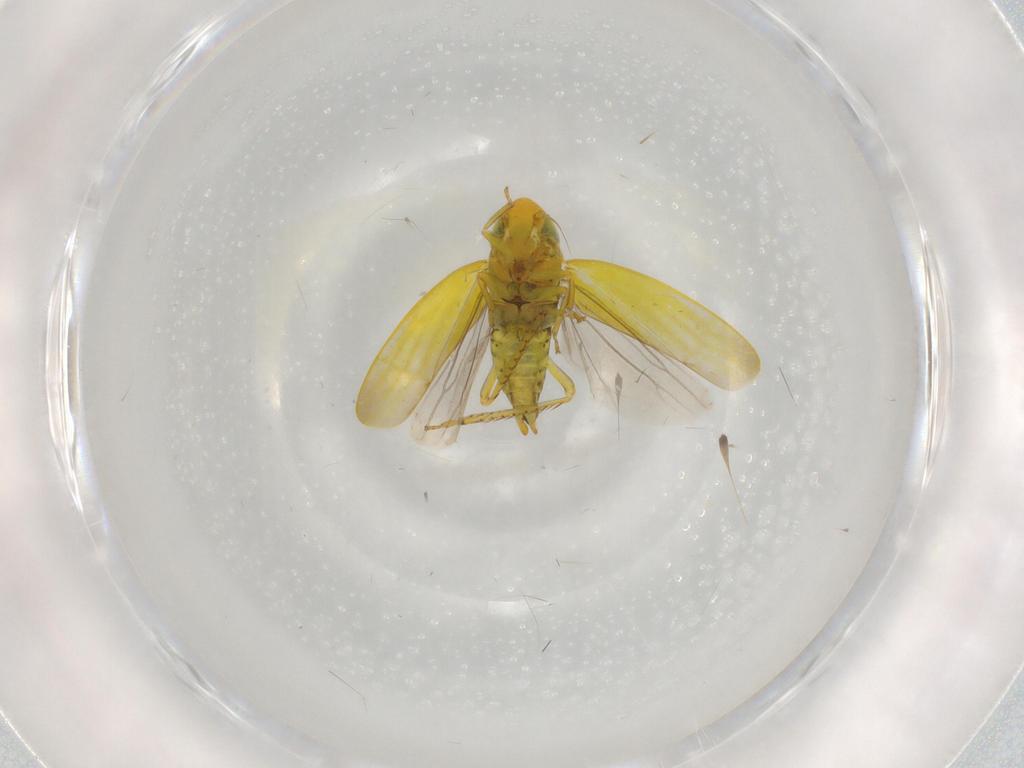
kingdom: Animalia
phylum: Arthropoda
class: Insecta
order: Hemiptera
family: Cicadellidae
